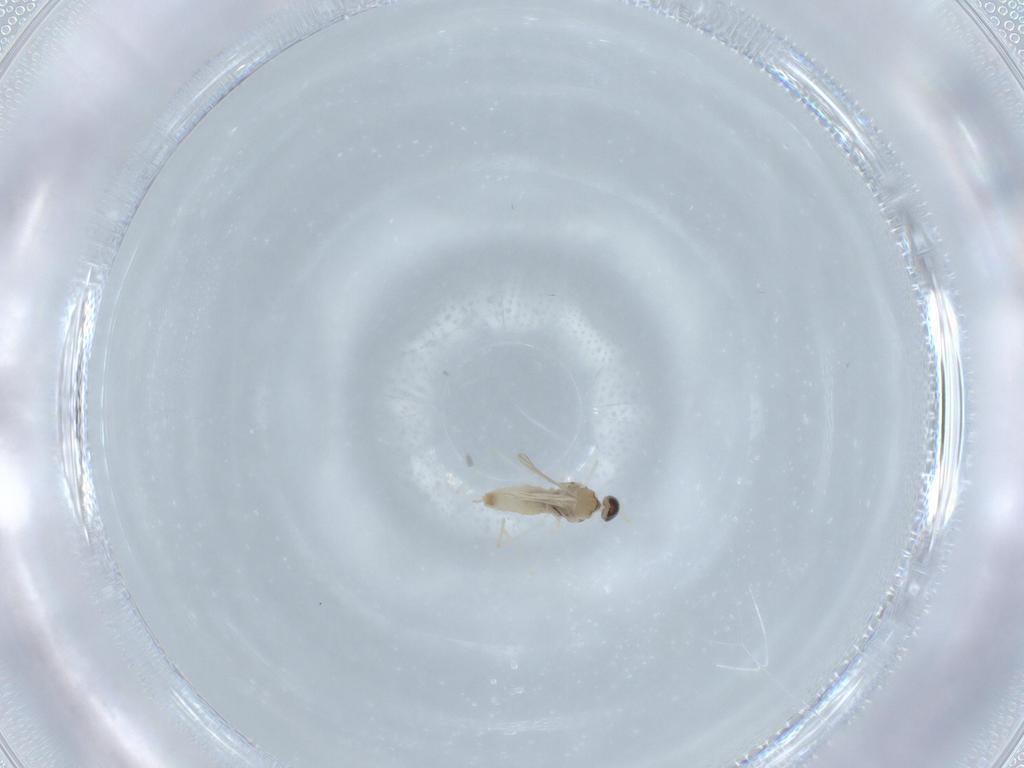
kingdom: Animalia
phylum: Arthropoda
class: Insecta
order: Diptera
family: Cecidomyiidae
